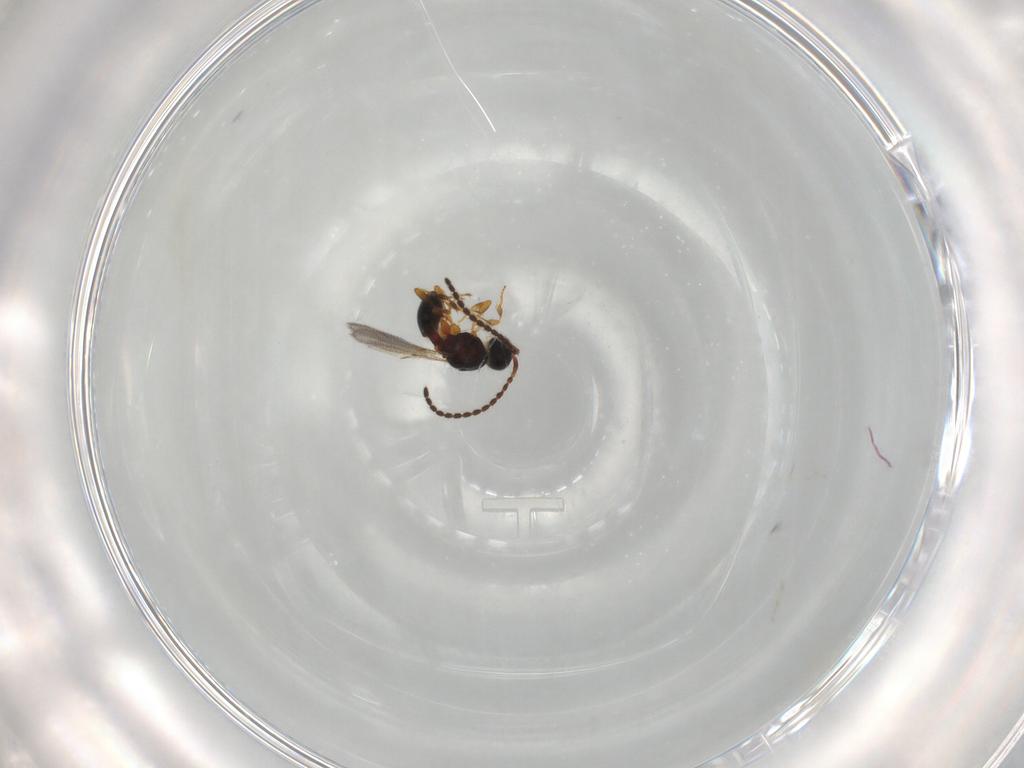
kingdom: Animalia
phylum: Arthropoda
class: Insecta
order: Hymenoptera
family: Diapriidae
